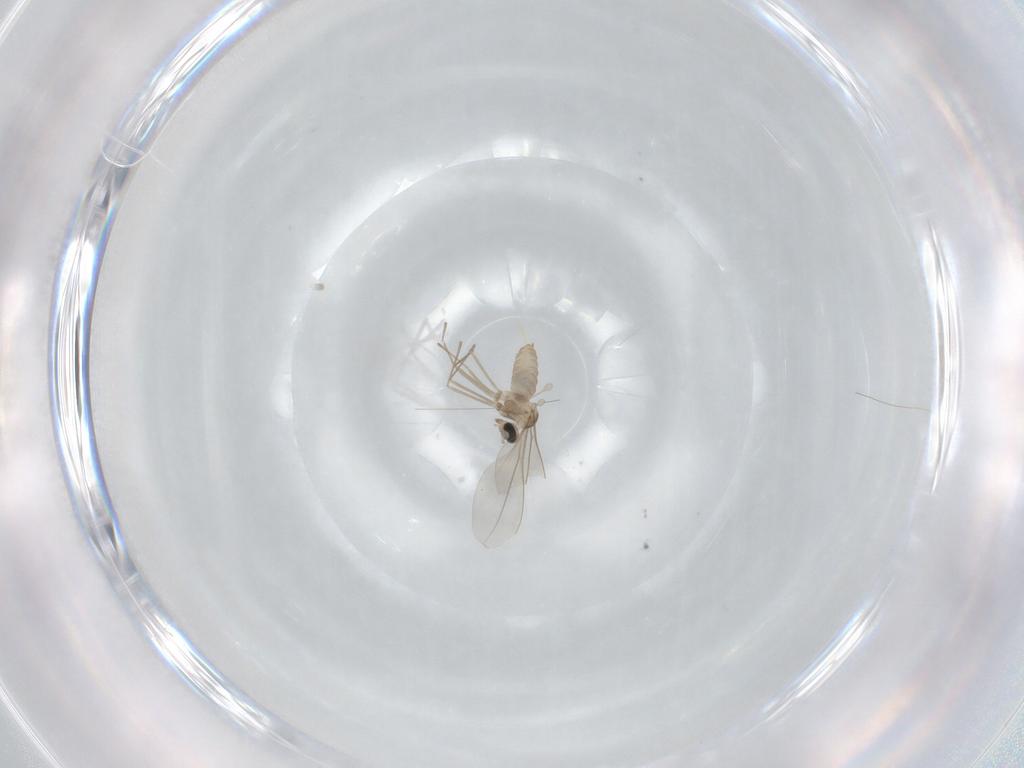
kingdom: Animalia
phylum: Arthropoda
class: Insecta
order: Diptera
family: Cecidomyiidae
